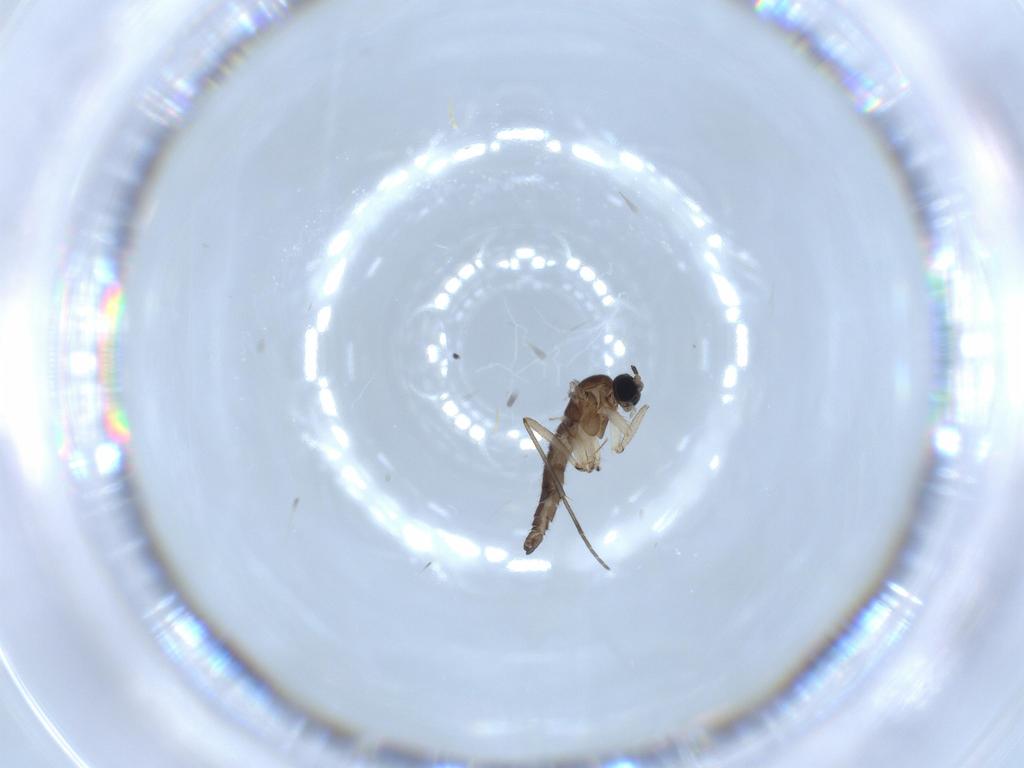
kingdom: Animalia
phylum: Arthropoda
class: Insecta
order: Diptera
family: Sciaridae
